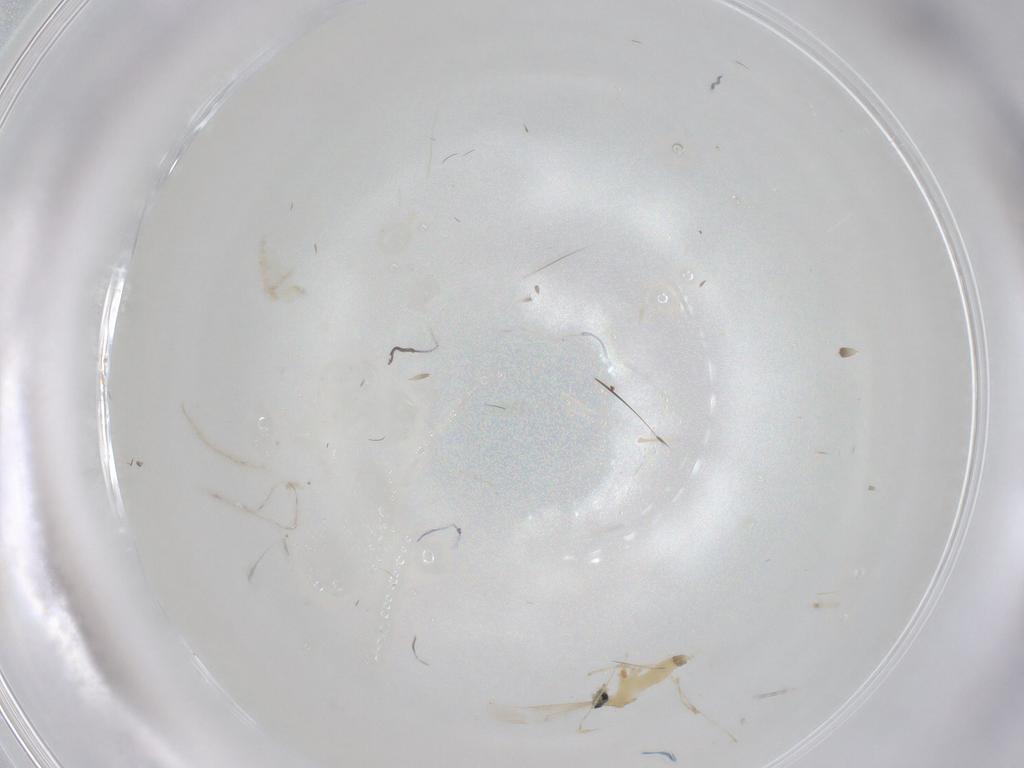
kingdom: Animalia
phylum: Arthropoda
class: Insecta
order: Diptera
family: Cecidomyiidae
